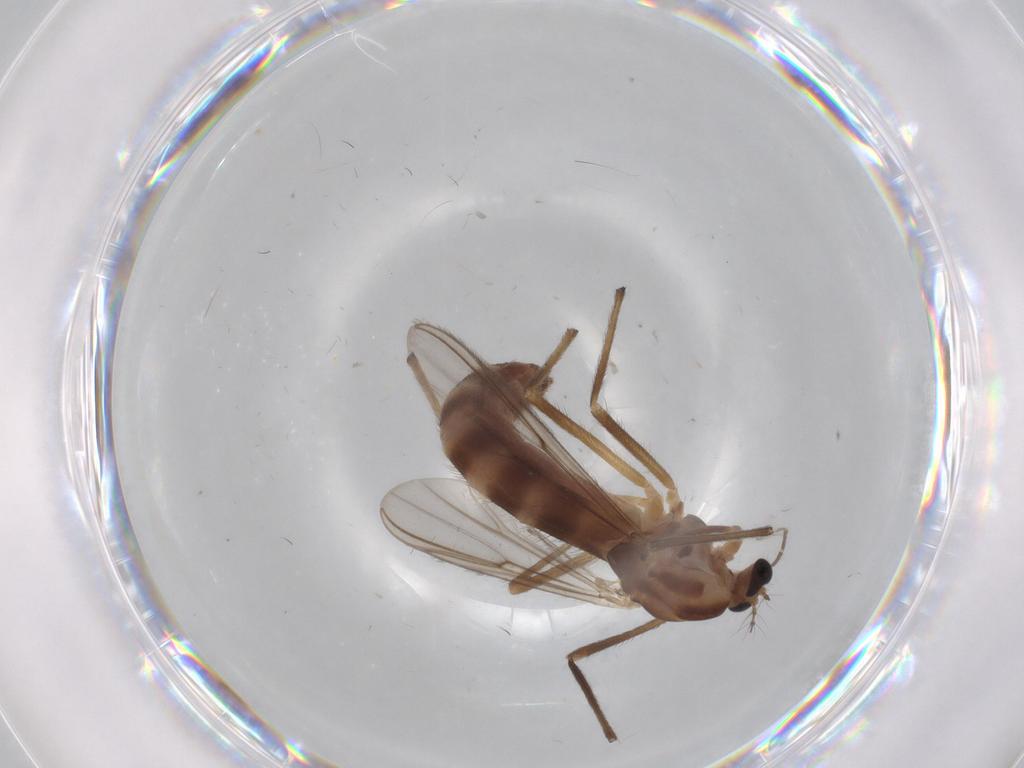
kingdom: Animalia
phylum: Arthropoda
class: Insecta
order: Diptera
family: Chironomidae
